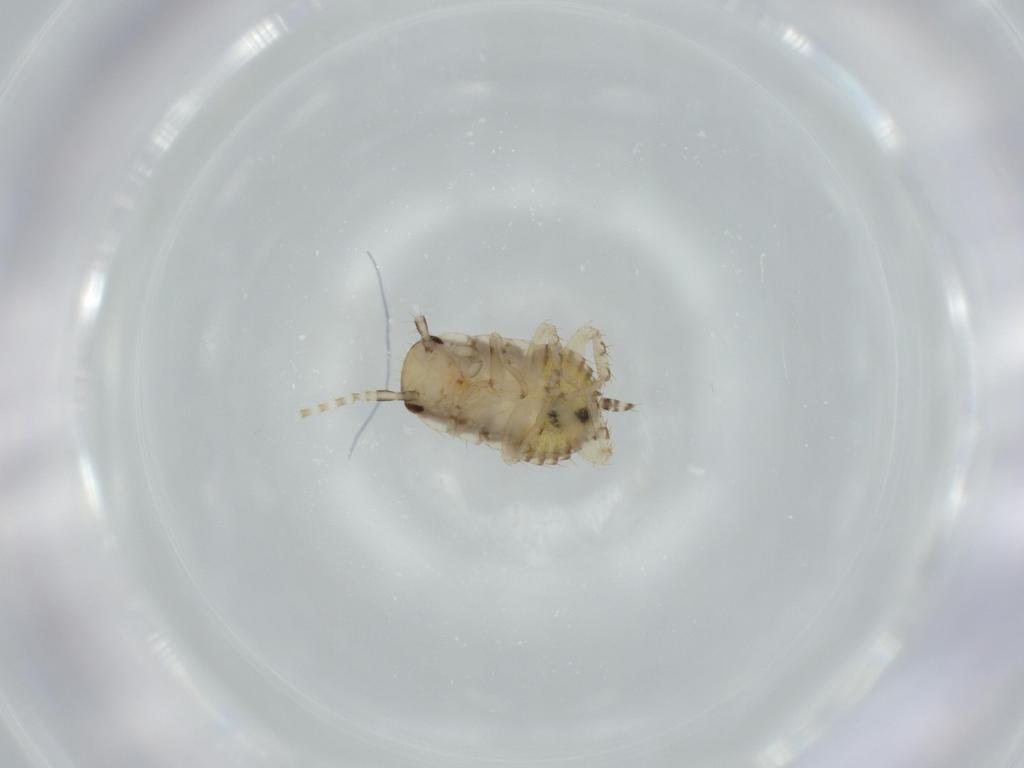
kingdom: Animalia
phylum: Arthropoda
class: Insecta
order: Blattodea
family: Ectobiidae
